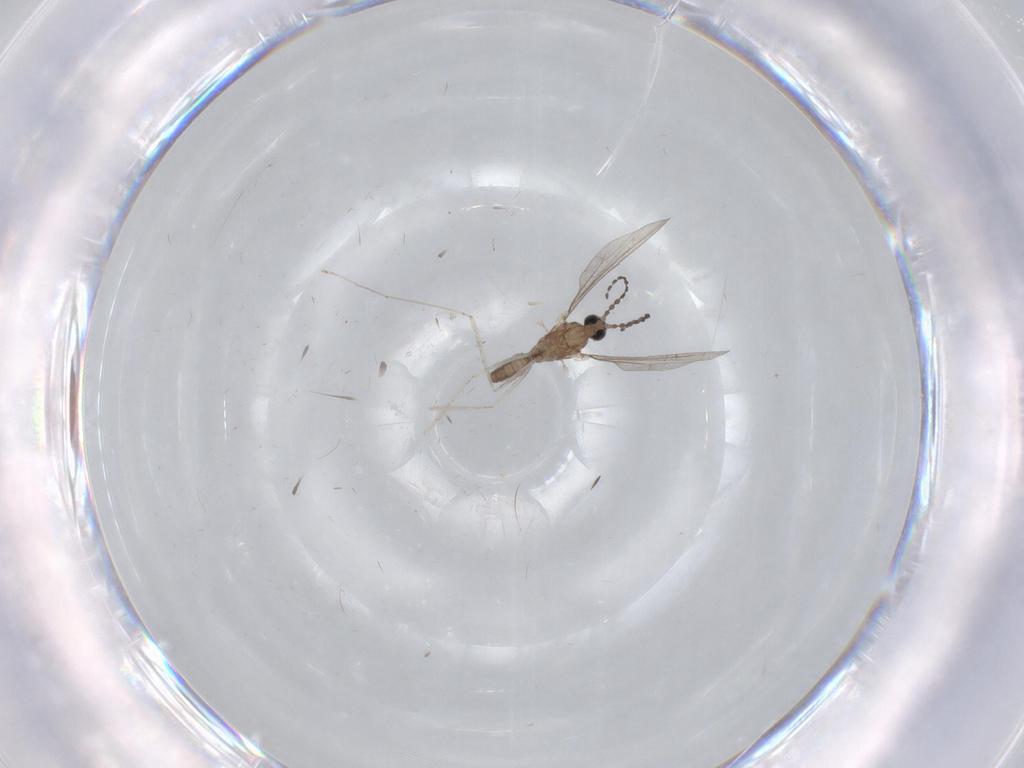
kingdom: Animalia
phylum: Arthropoda
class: Insecta
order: Diptera
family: Cecidomyiidae
